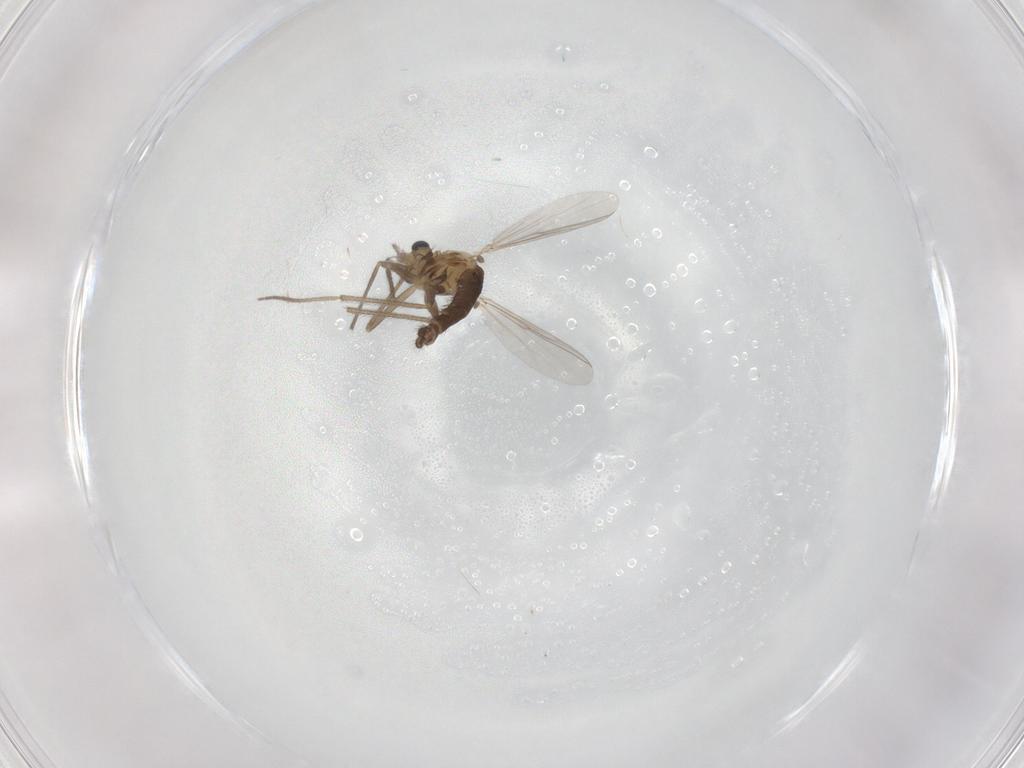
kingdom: Animalia
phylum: Arthropoda
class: Insecta
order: Diptera
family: Chironomidae
